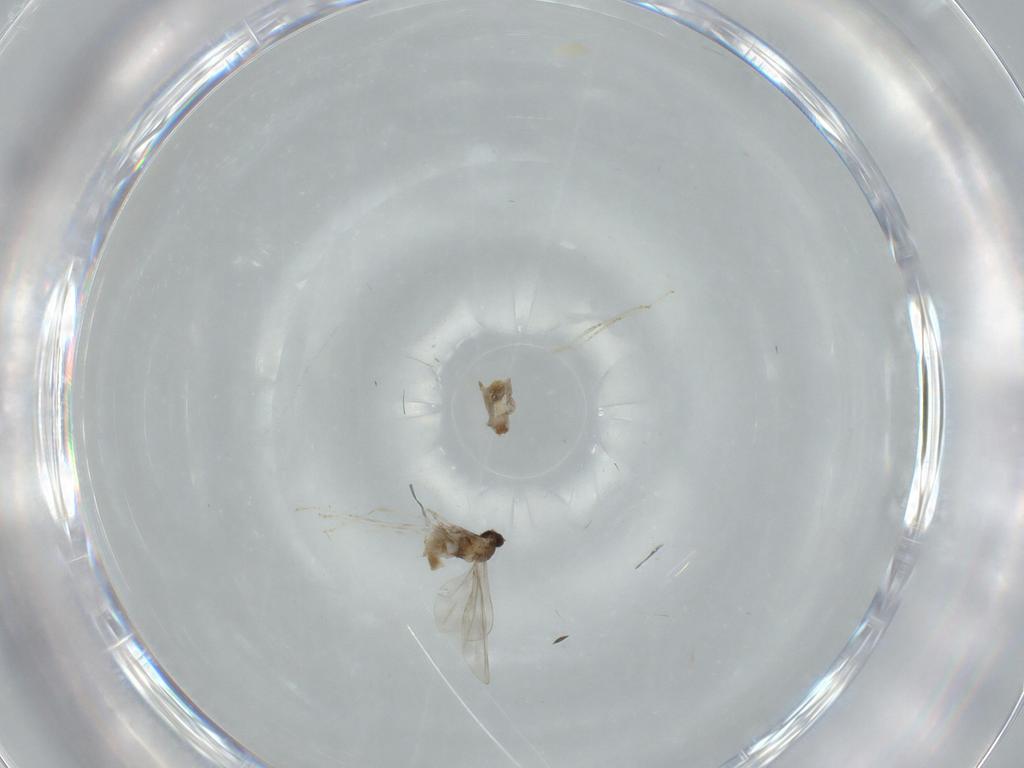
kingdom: Animalia
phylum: Arthropoda
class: Insecta
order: Diptera
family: Cecidomyiidae
